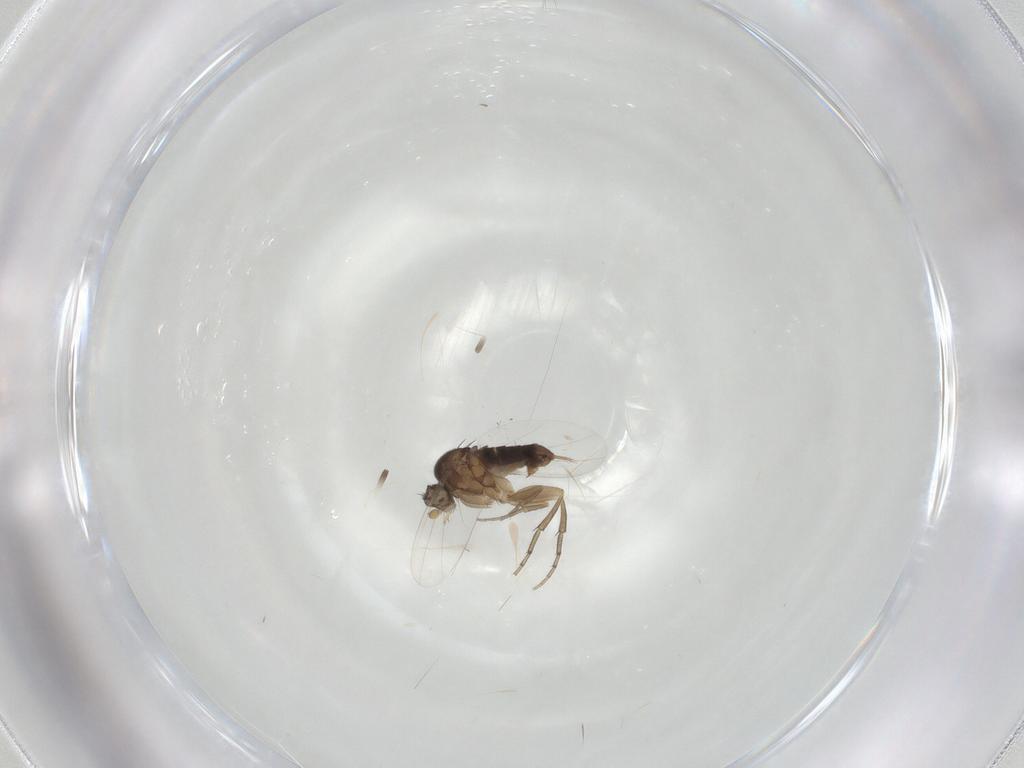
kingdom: Animalia
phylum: Arthropoda
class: Insecta
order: Diptera
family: Phoridae
